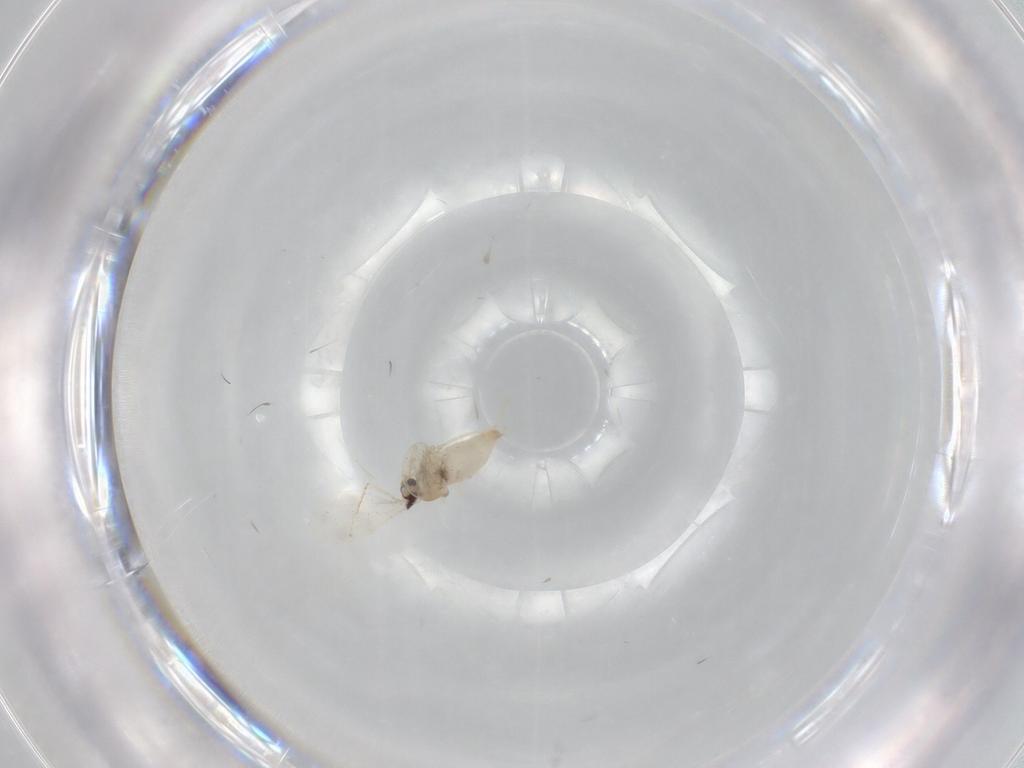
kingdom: Animalia
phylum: Arthropoda
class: Insecta
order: Diptera
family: Cecidomyiidae
